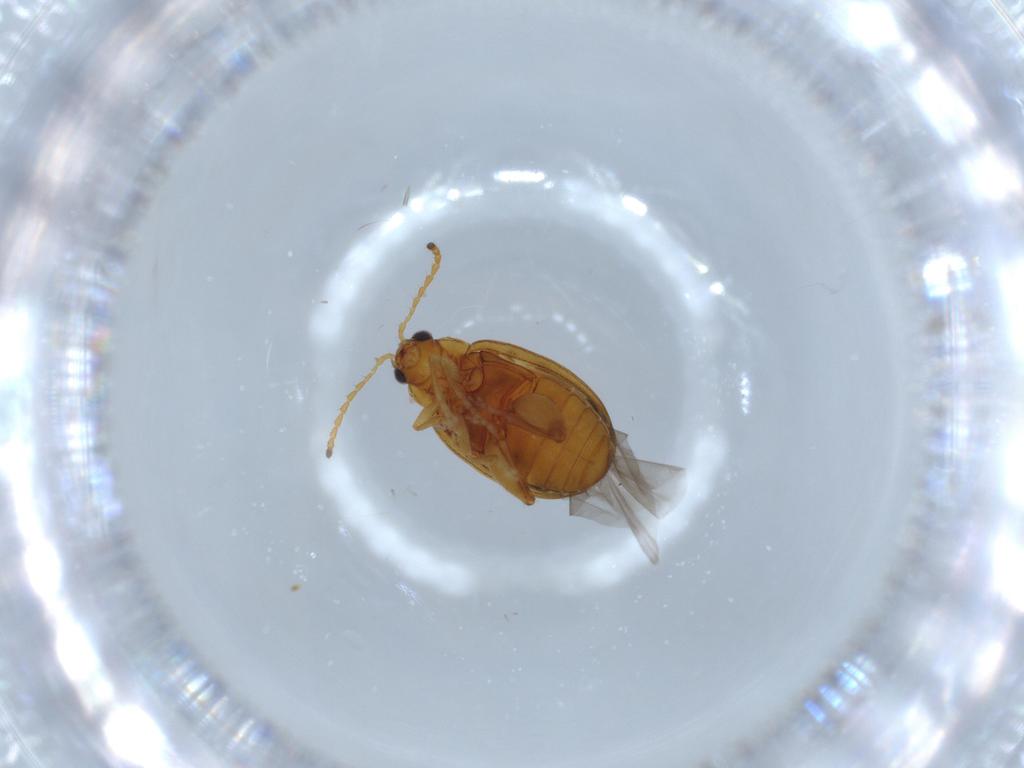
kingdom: Animalia
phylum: Arthropoda
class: Insecta
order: Coleoptera
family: Chrysomelidae
